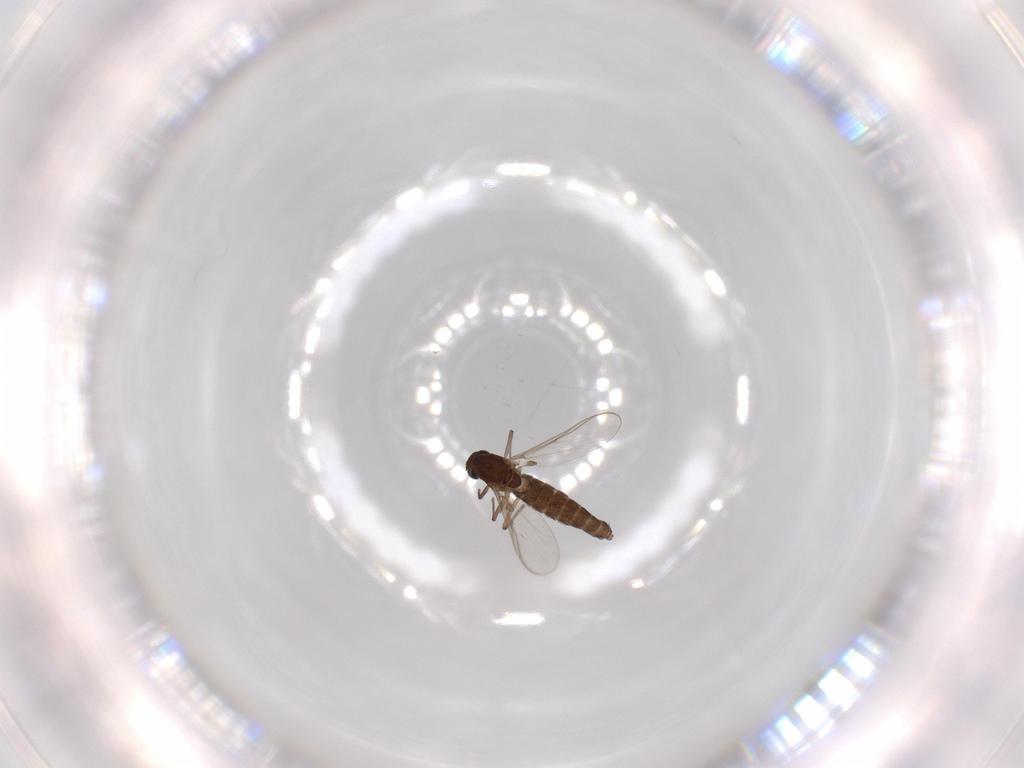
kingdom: Animalia
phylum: Arthropoda
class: Insecta
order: Diptera
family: Chironomidae
